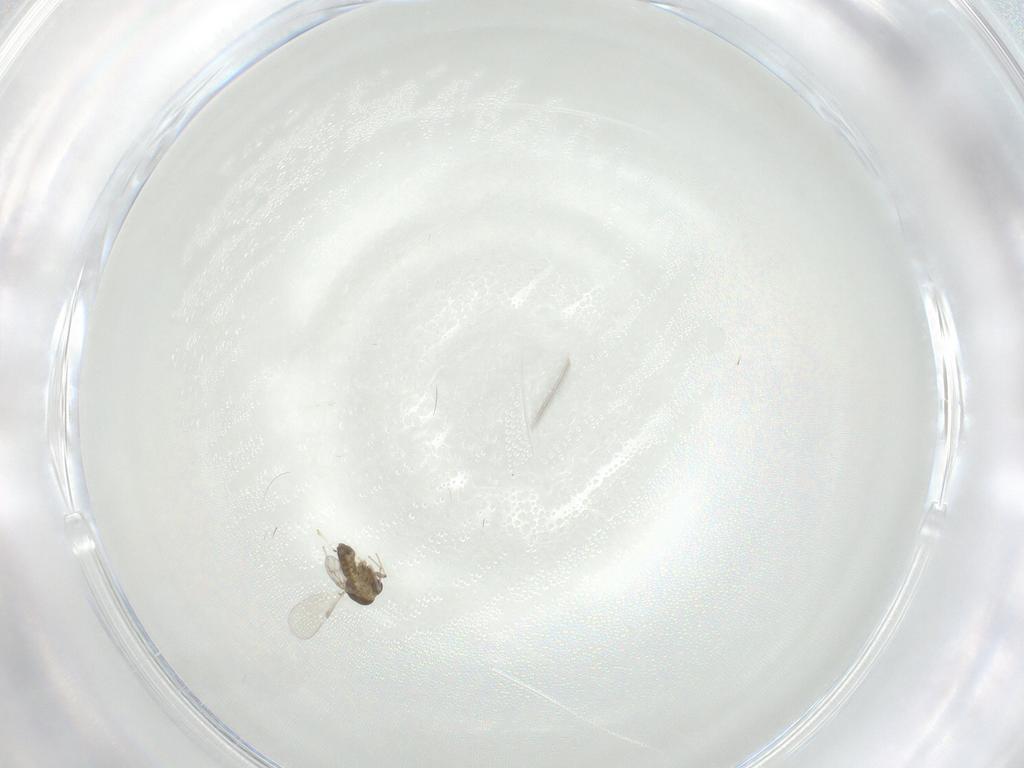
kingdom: Animalia
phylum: Arthropoda
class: Insecta
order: Diptera
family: Chironomidae
